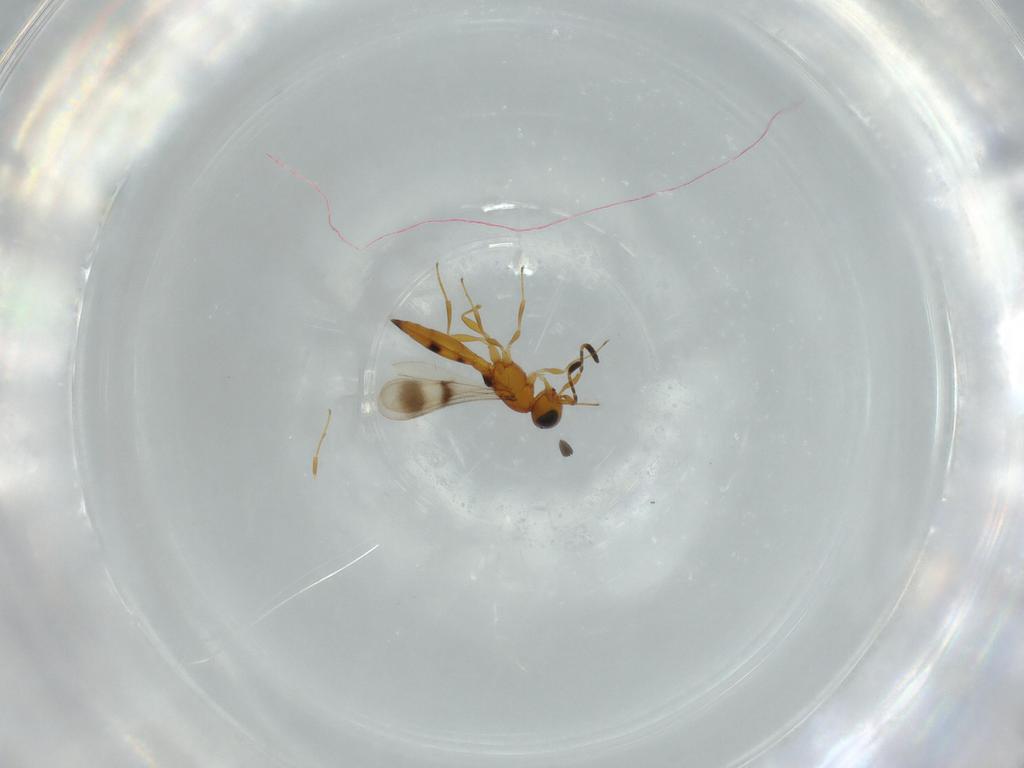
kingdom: Animalia
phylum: Arthropoda
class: Insecta
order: Hymenoptera
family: Scelionidae
